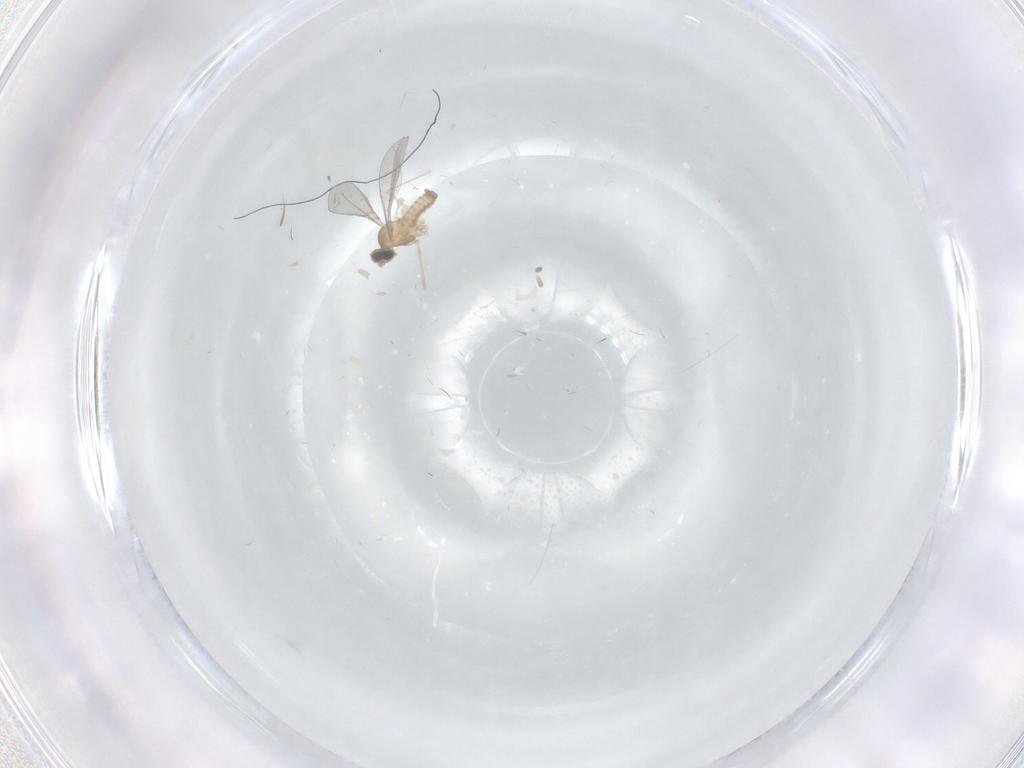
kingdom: Animalia
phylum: Arthropoda
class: Insecta
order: Diptera
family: Cecidomyiidae
